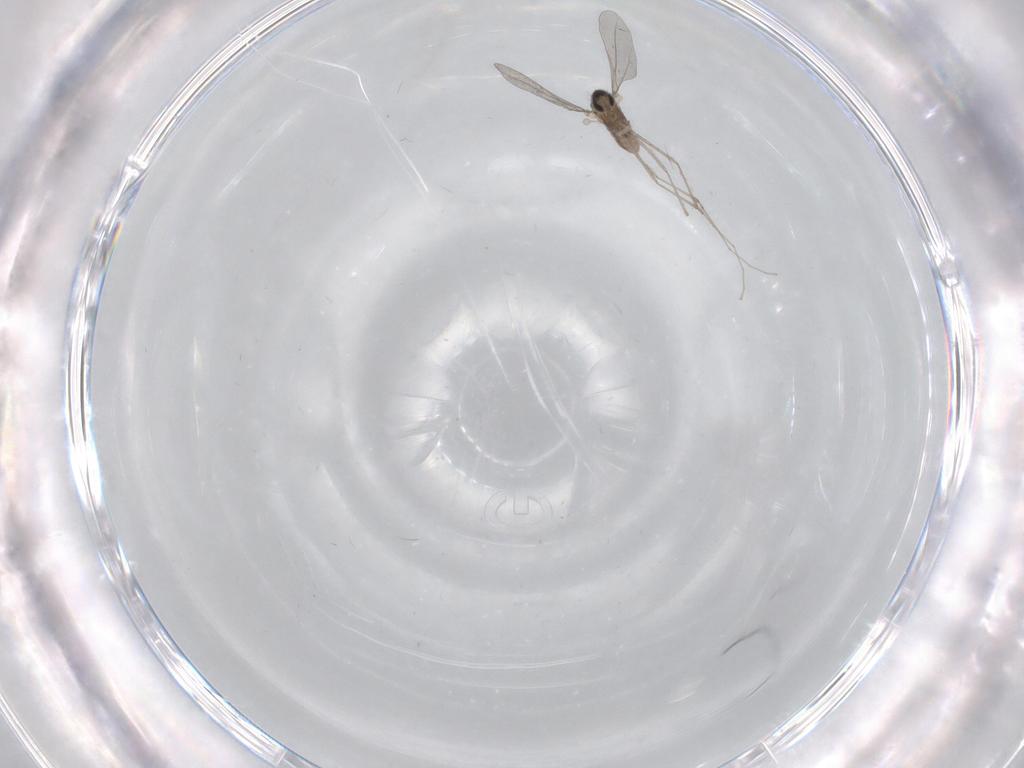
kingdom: Animalia
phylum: Arthropoda
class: Insecta
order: Diptera
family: Cecidomyiidae
